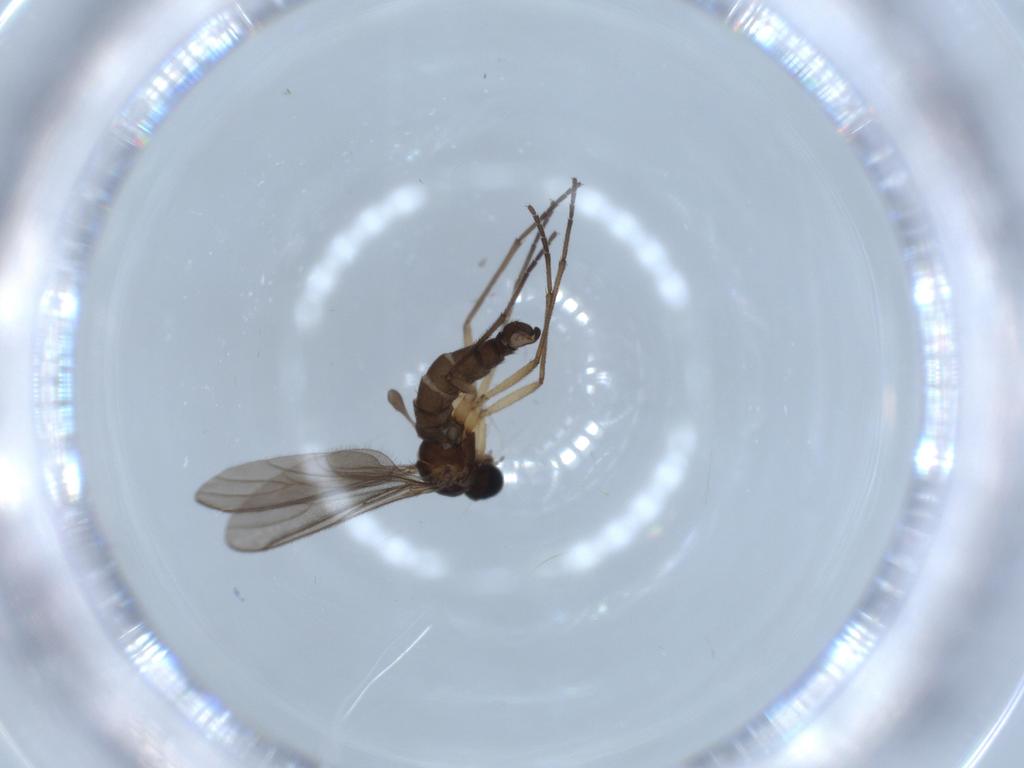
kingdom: Animalia
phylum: Arthropoda
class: Insecta
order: Diptera
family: Sciaridae
